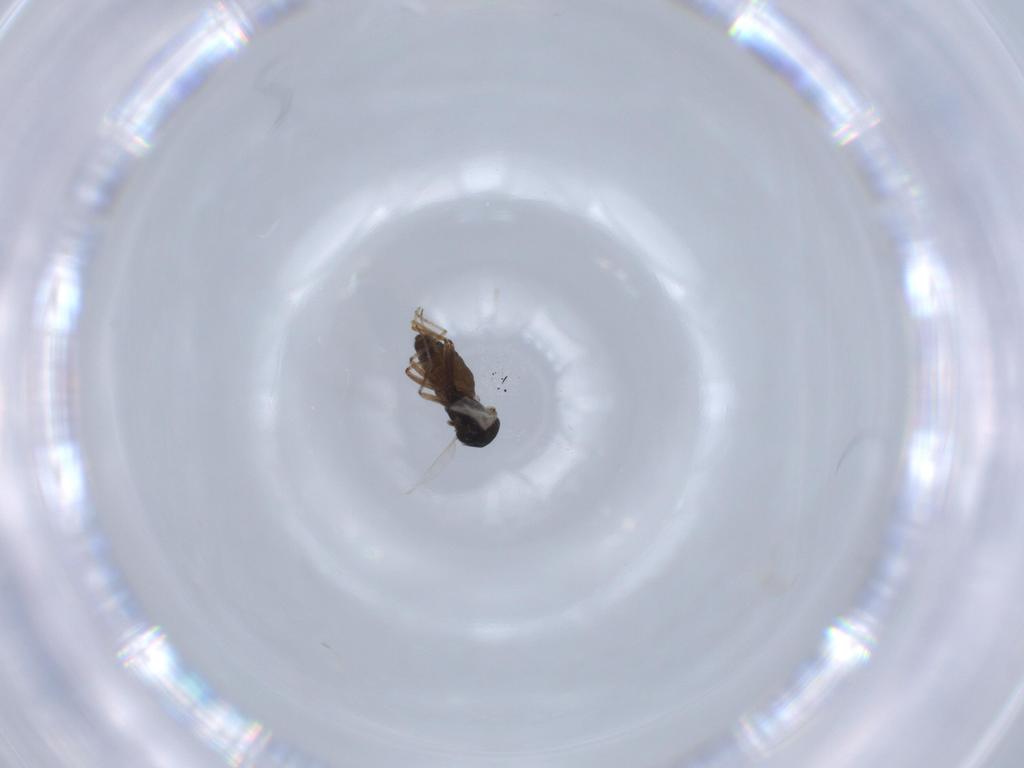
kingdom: Animalia
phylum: Arthropoda
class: Insecta
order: Diptera
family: Ceratopogonidae
